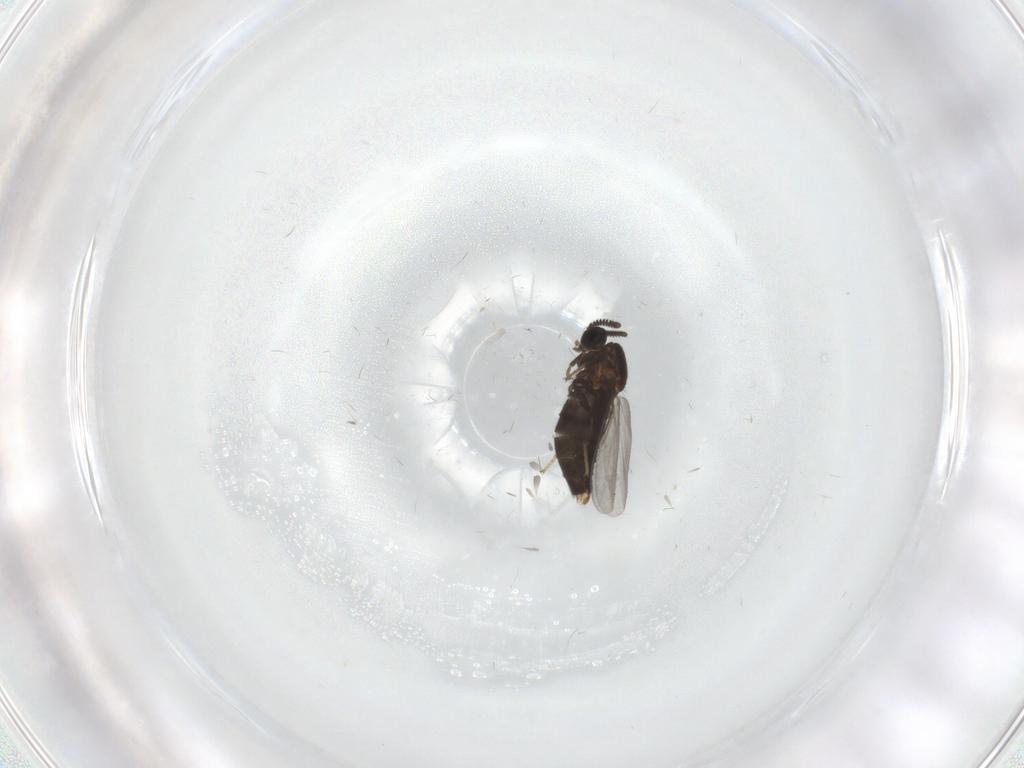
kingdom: Animalia
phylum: Arthropoda
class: Insecta
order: Diptera
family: Scatopsidae
